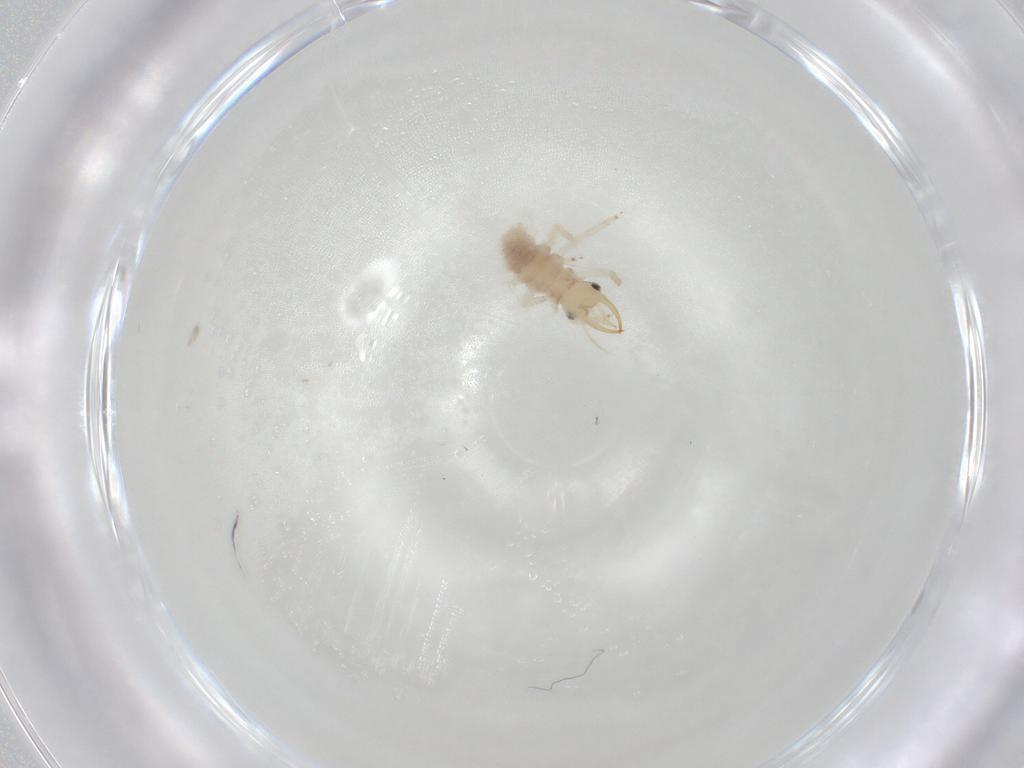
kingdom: Animalia
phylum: Arthropoda
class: Insecta
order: Neuroptera
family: Chrysopidae
